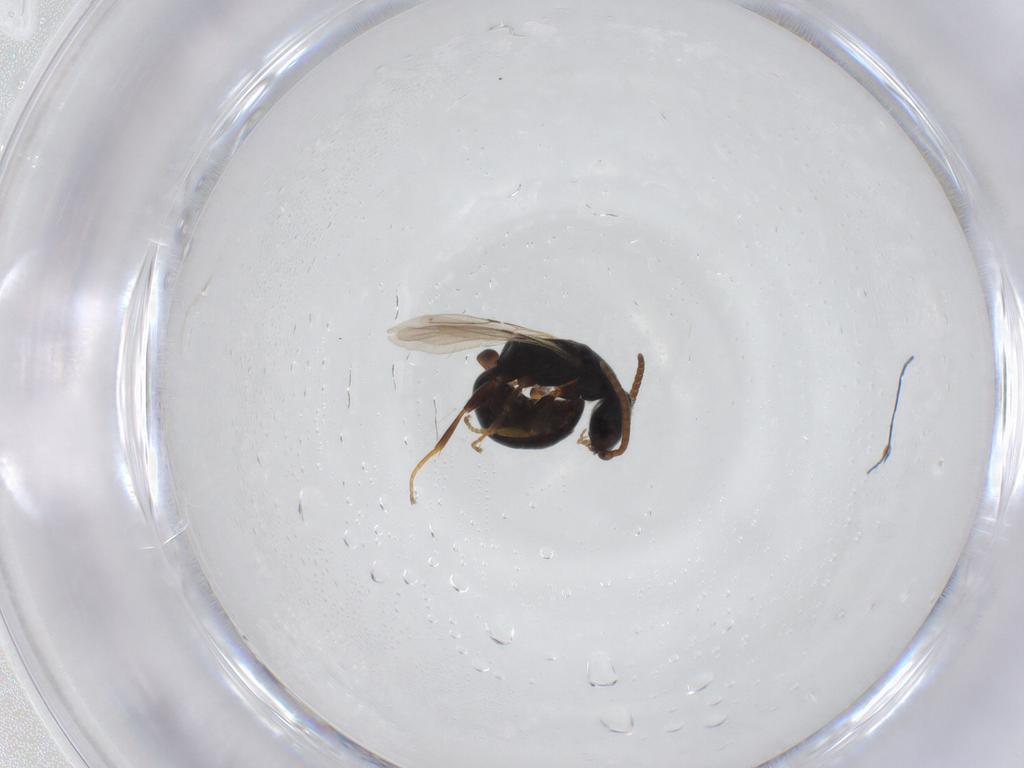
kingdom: Animalia
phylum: Arthropoda
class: Insecta
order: Hymenoptera
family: Bethylidae
